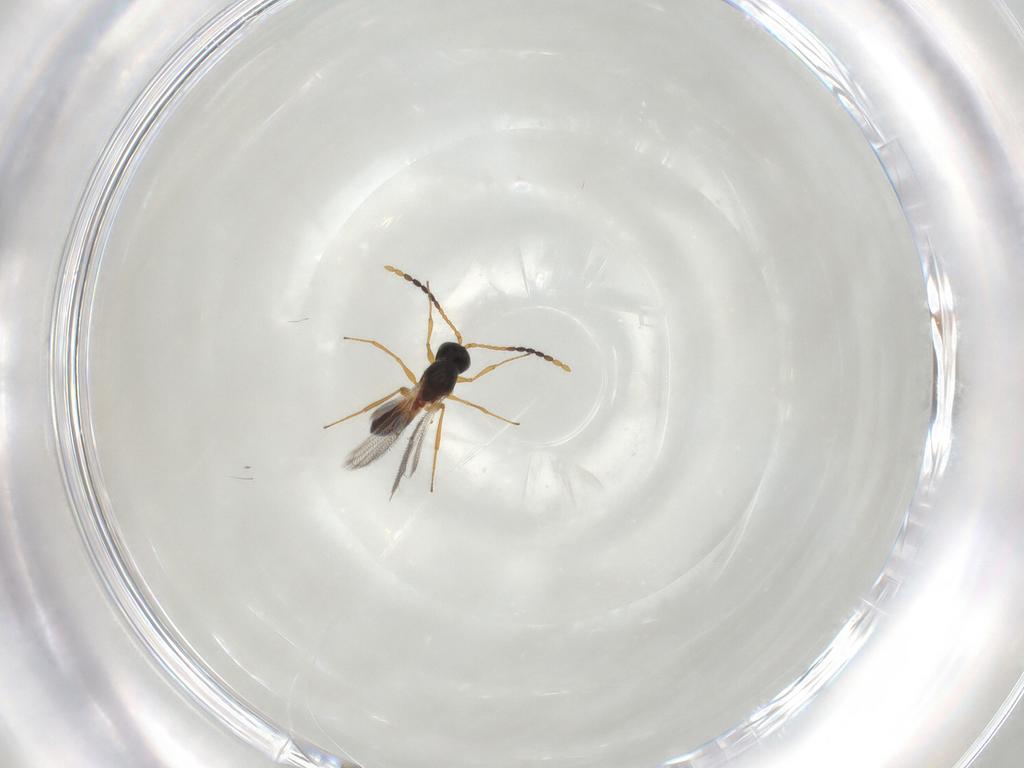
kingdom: Animalia
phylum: Arthropoda
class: Insecta
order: Hymenoptera
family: Figitidae
